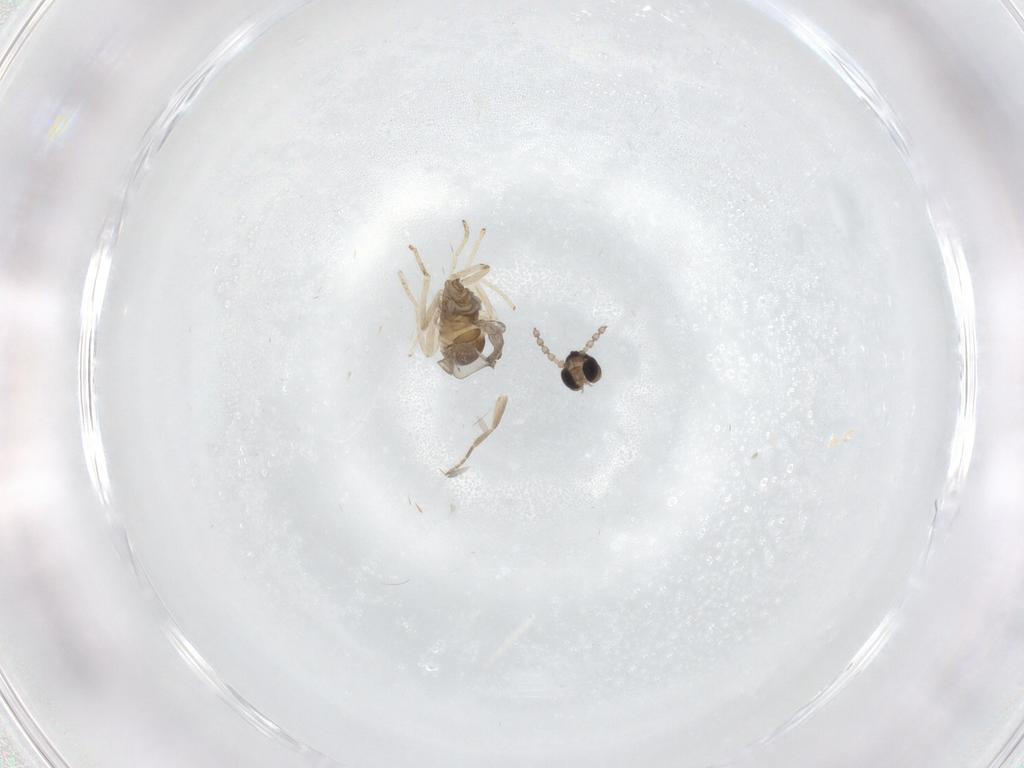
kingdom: Animalia
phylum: Arthropoda
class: Insecta
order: Diptera
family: Cecidomyiidae
